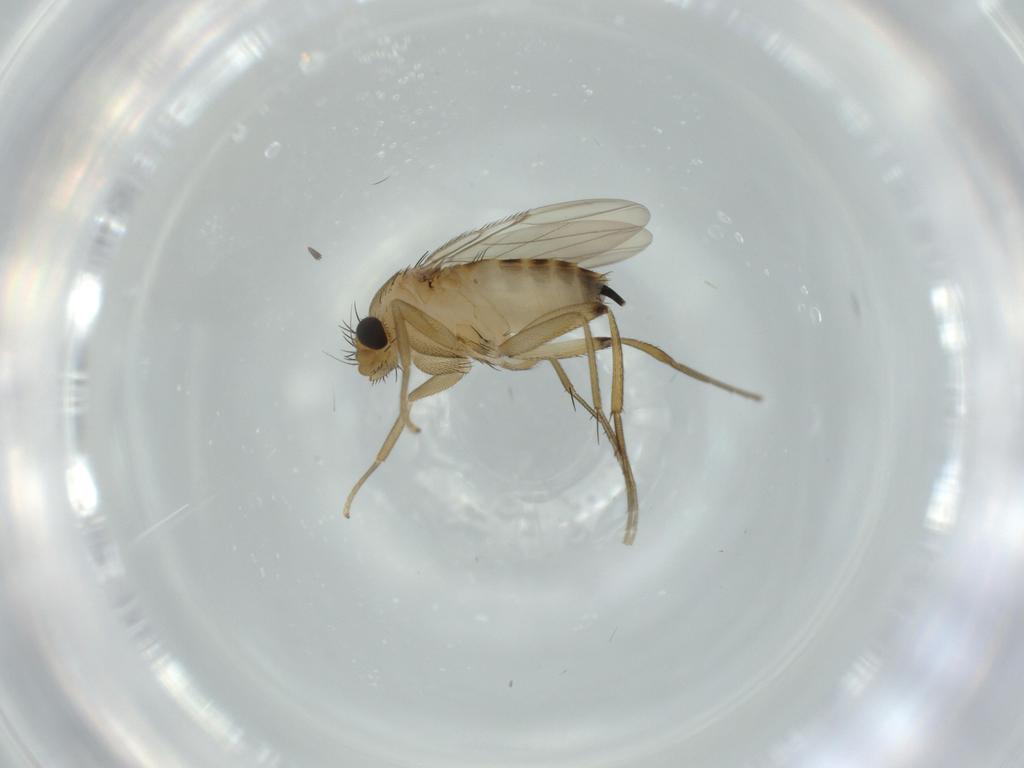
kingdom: Animalia
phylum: Arthropoda
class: Insecta
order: Diptera
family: Phoridae
